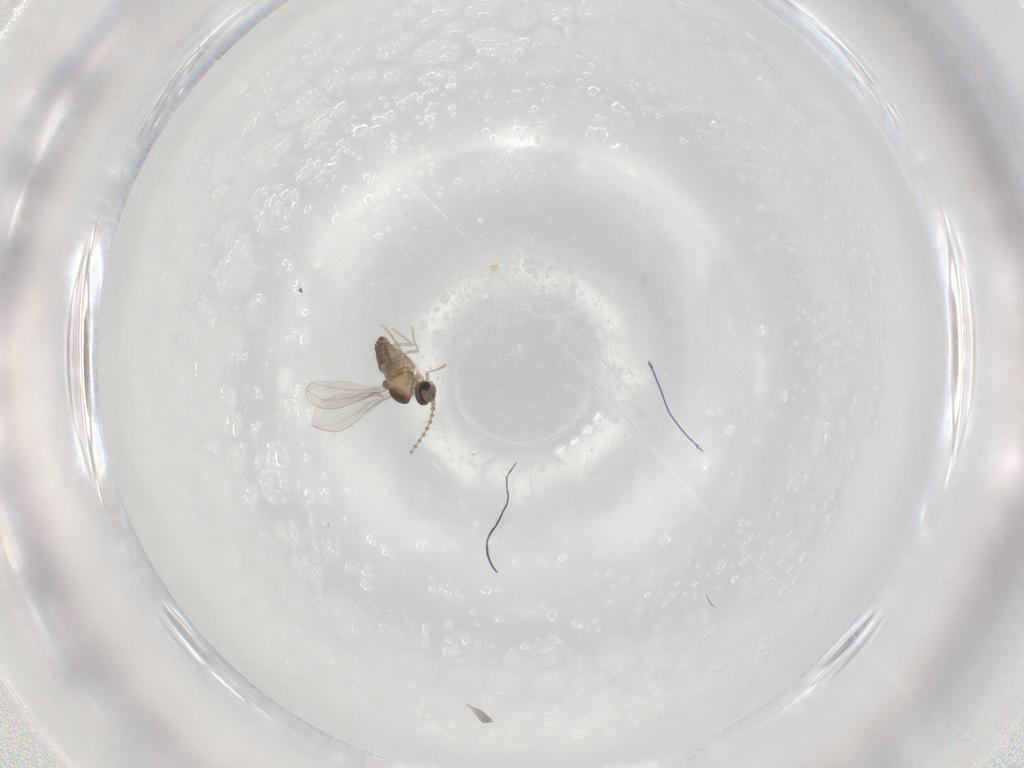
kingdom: Animalia
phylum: Arthropoda
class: Insecta
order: Diptera
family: Cecidomyiidae
